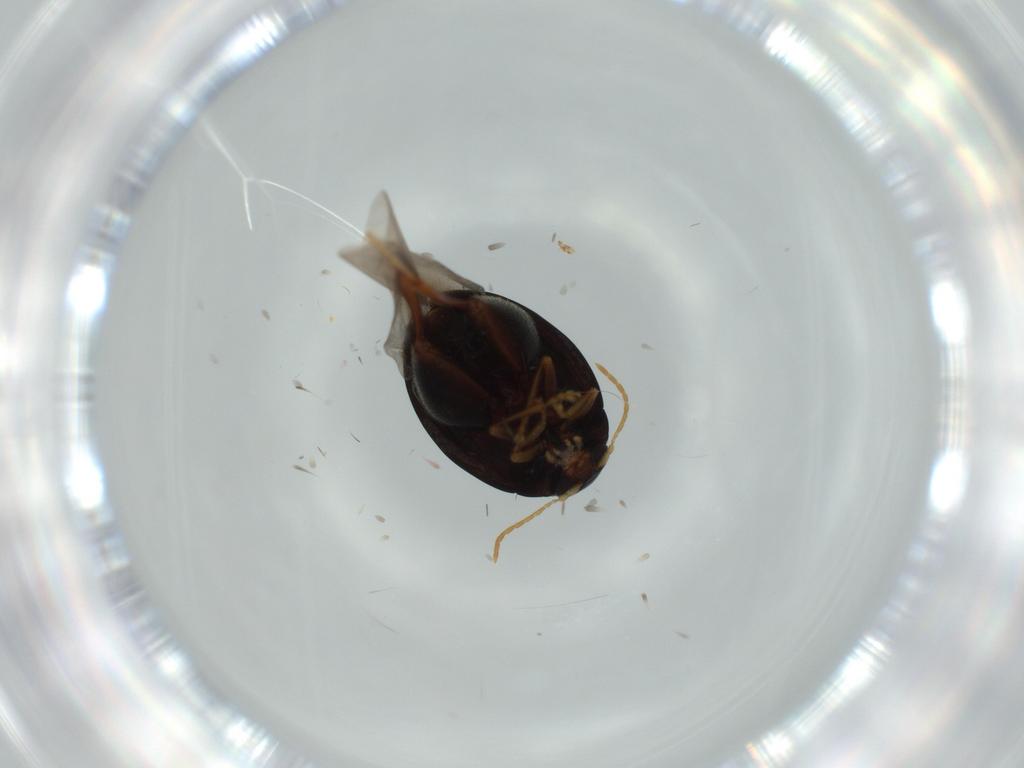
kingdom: Animalia
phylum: Arthropoda
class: Insecta
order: Coleoptera
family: Chrysomelidae
